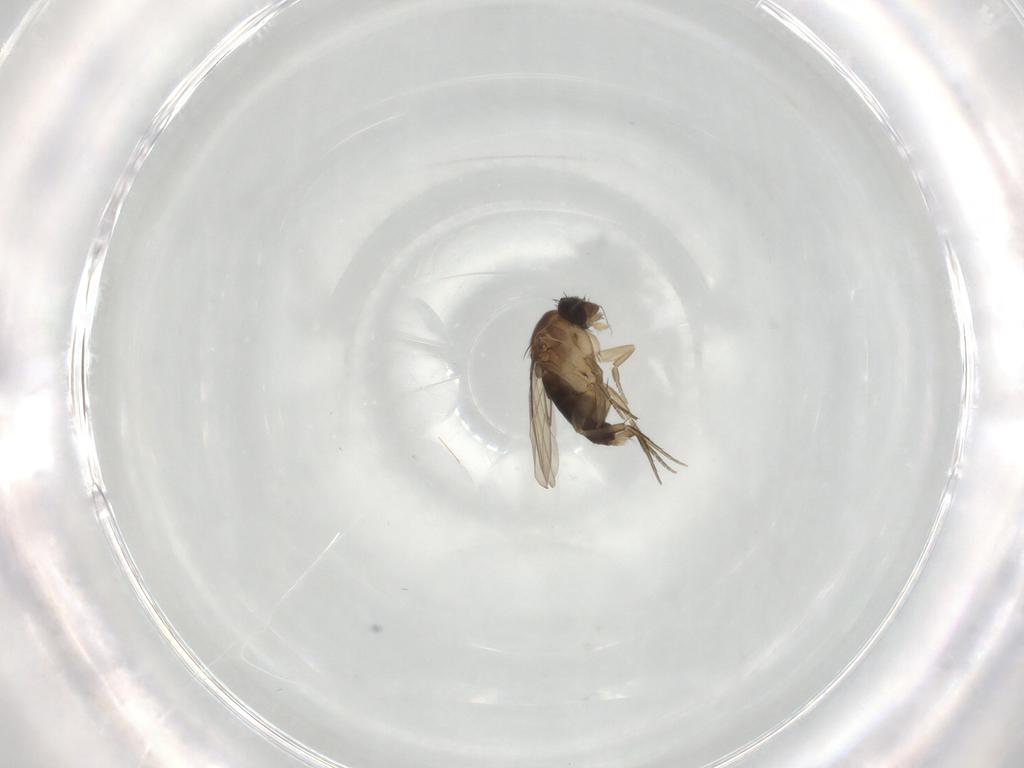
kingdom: Animalia
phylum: Arthropoda
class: Insecta
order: Diptera
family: Phoridae
